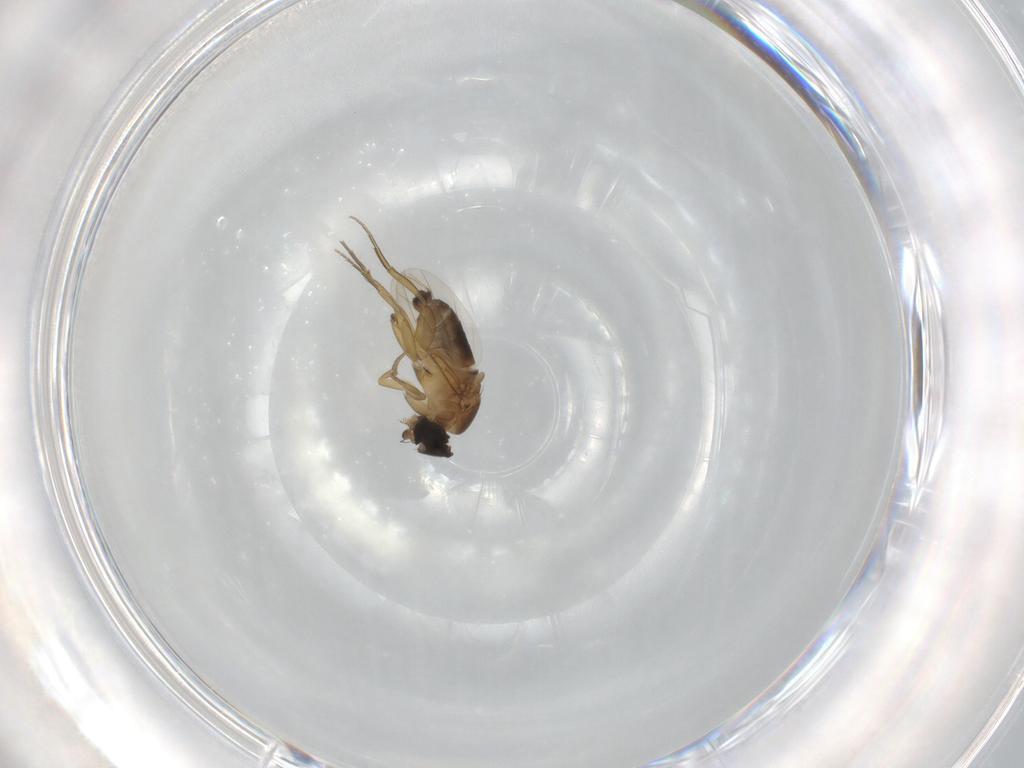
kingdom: Animalia
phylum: Arthropoda
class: Insecta
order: Diptera
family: Phoridae
